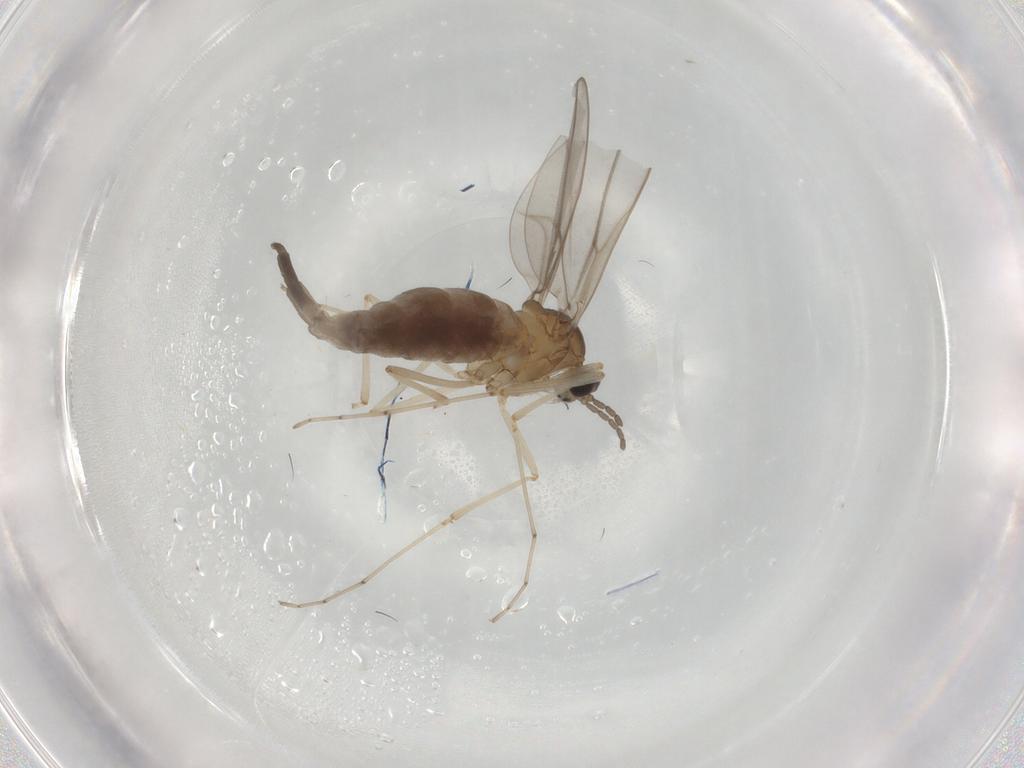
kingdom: Animalia
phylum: Arthropoda
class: Insecta
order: Diptera
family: Cecidomyiidae
